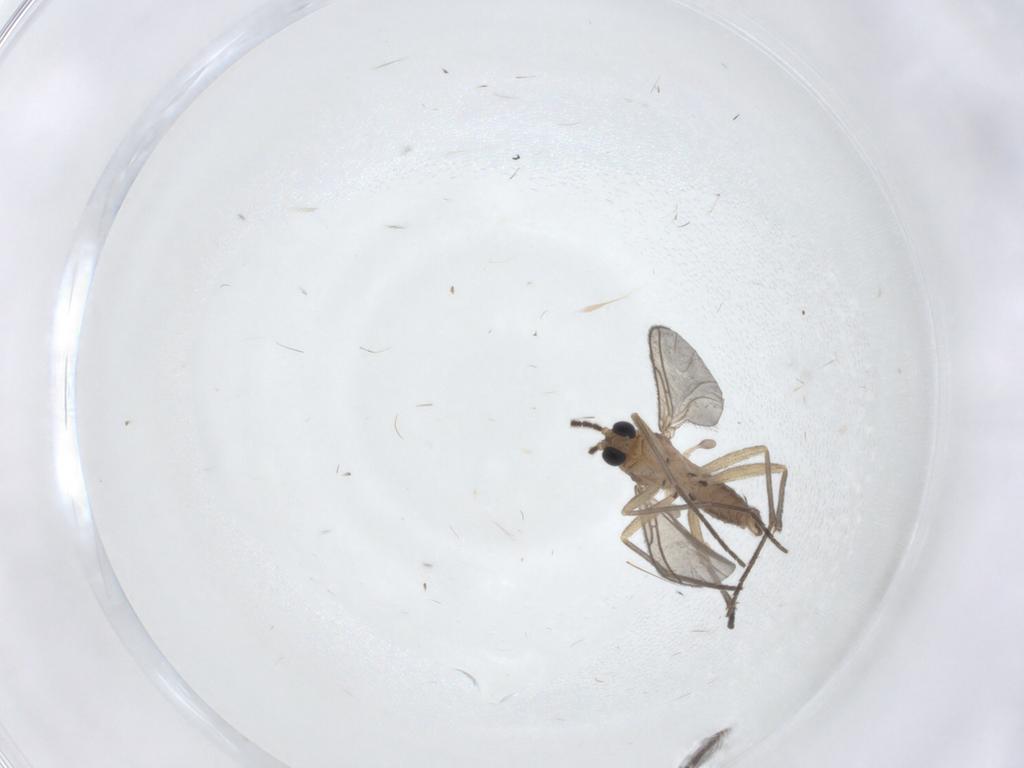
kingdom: Animalia
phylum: Arthropoda
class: Insecta
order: Diptera
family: Sciaridae
